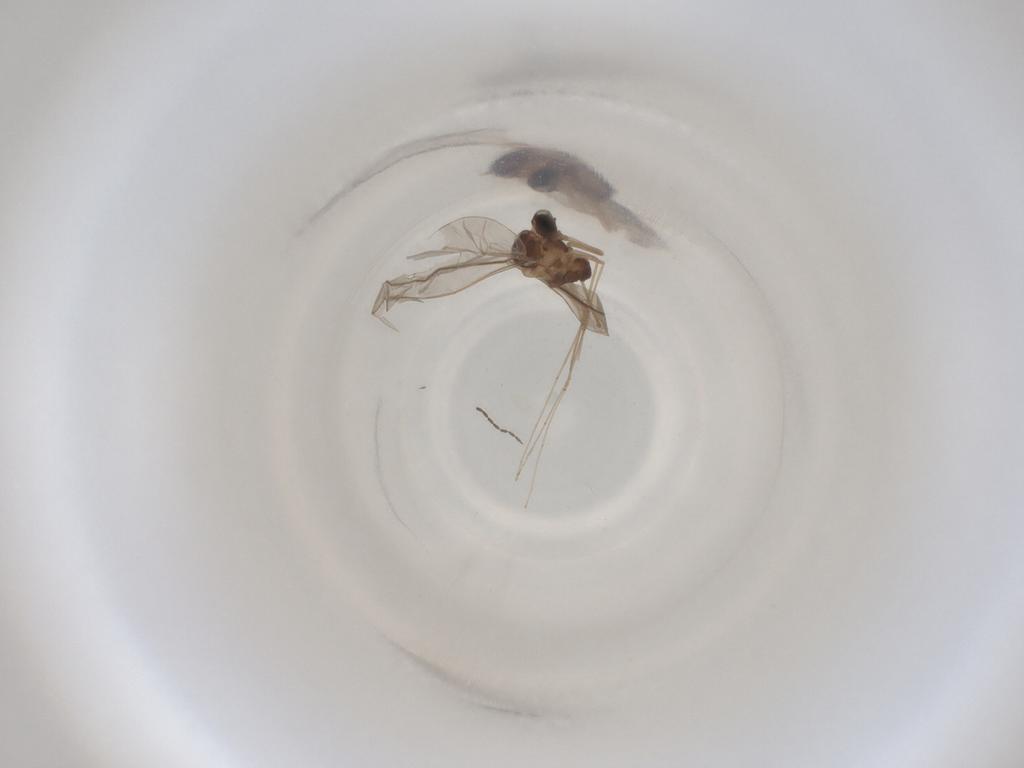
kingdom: Animalia
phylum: Arthropoda
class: Insecta
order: Diptera
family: Cecidomyiidae
